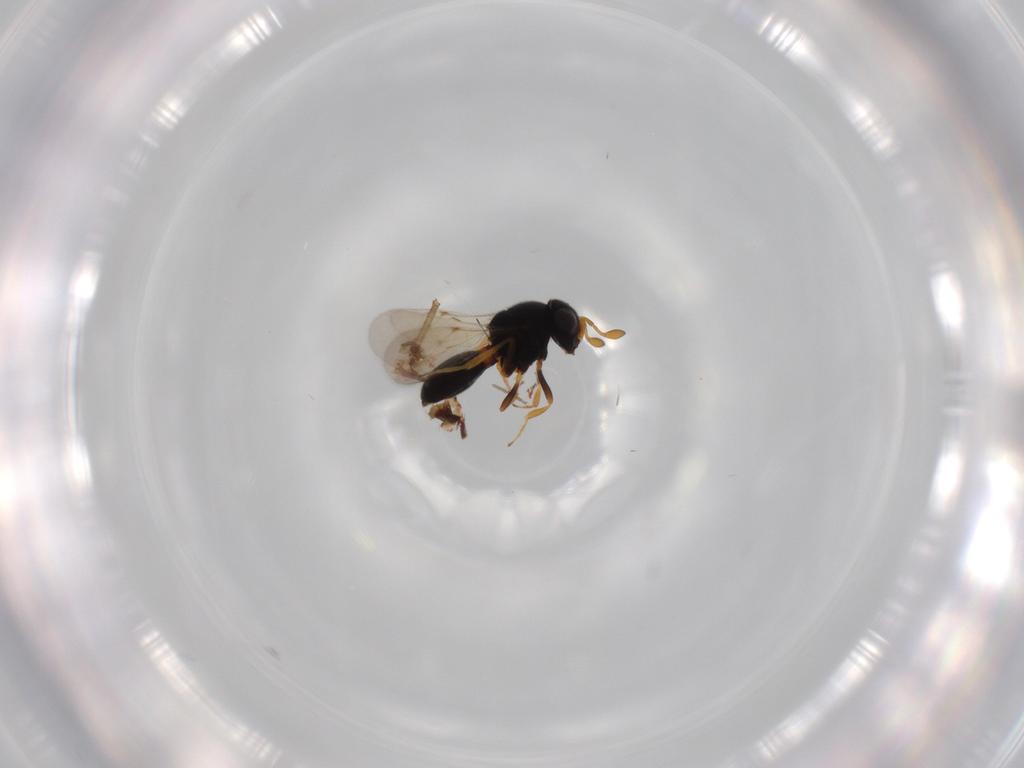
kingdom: Animalia
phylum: Arthropoda
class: Insecta
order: Hymenoptera
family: Scelionidae
